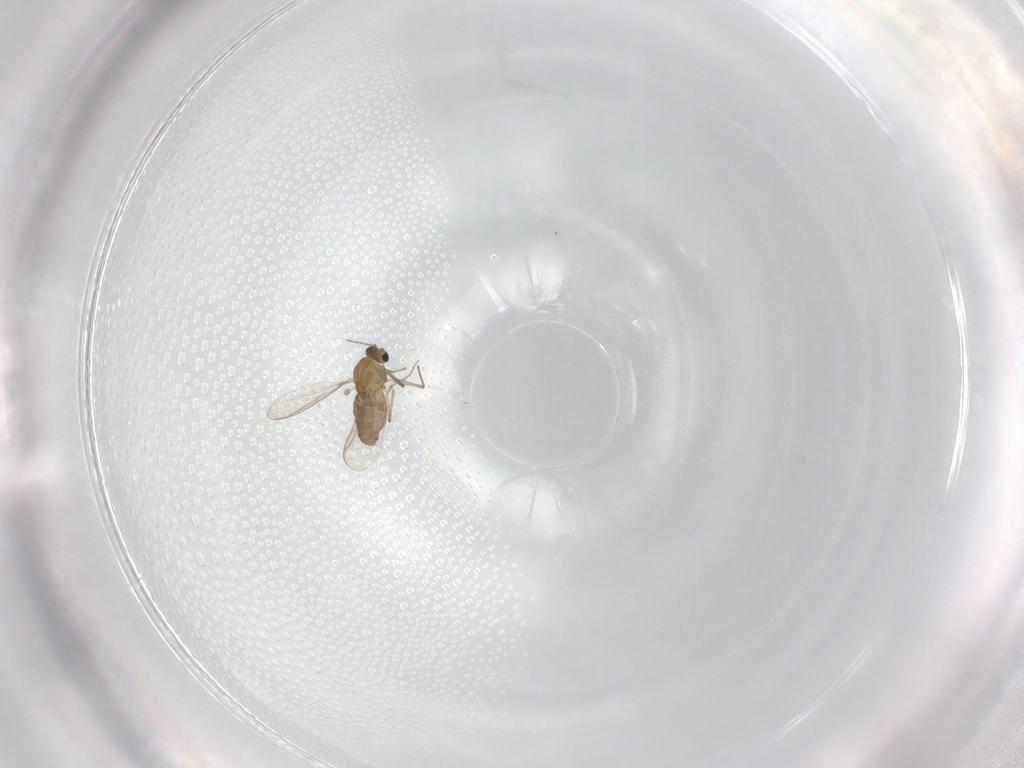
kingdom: Animalia
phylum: Arthropoda
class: Insecta
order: Diptera
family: Chironomidae
